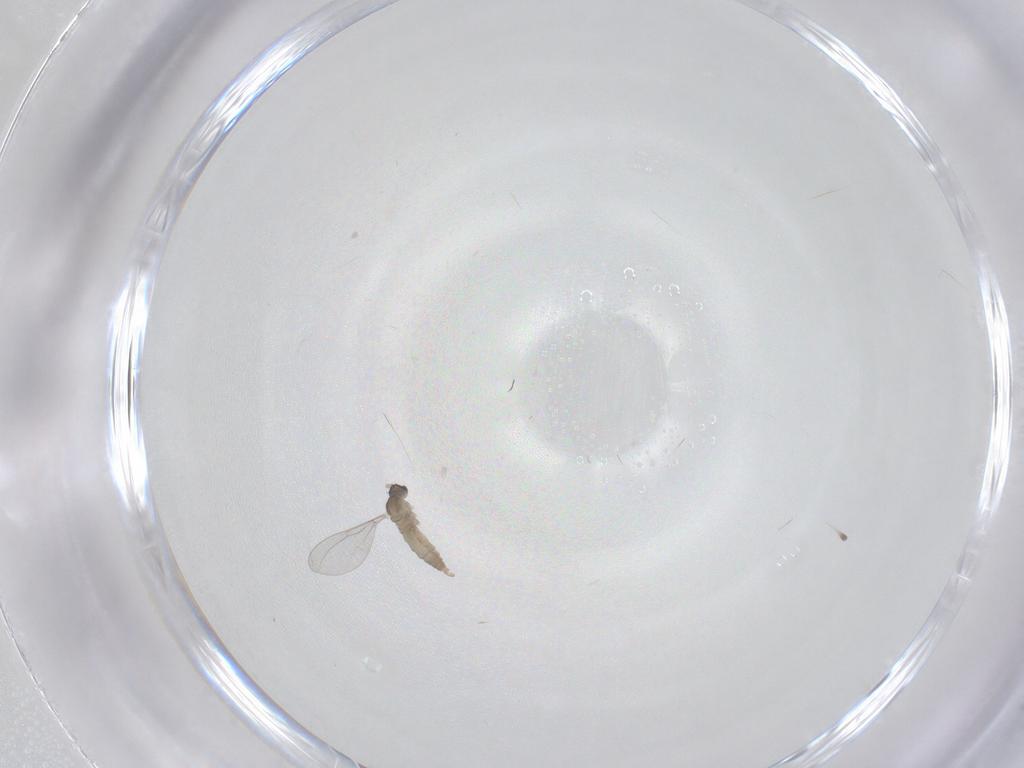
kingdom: Animalia
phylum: Arthropoda
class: Insecta
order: Diptera
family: Cecidomyiidae
